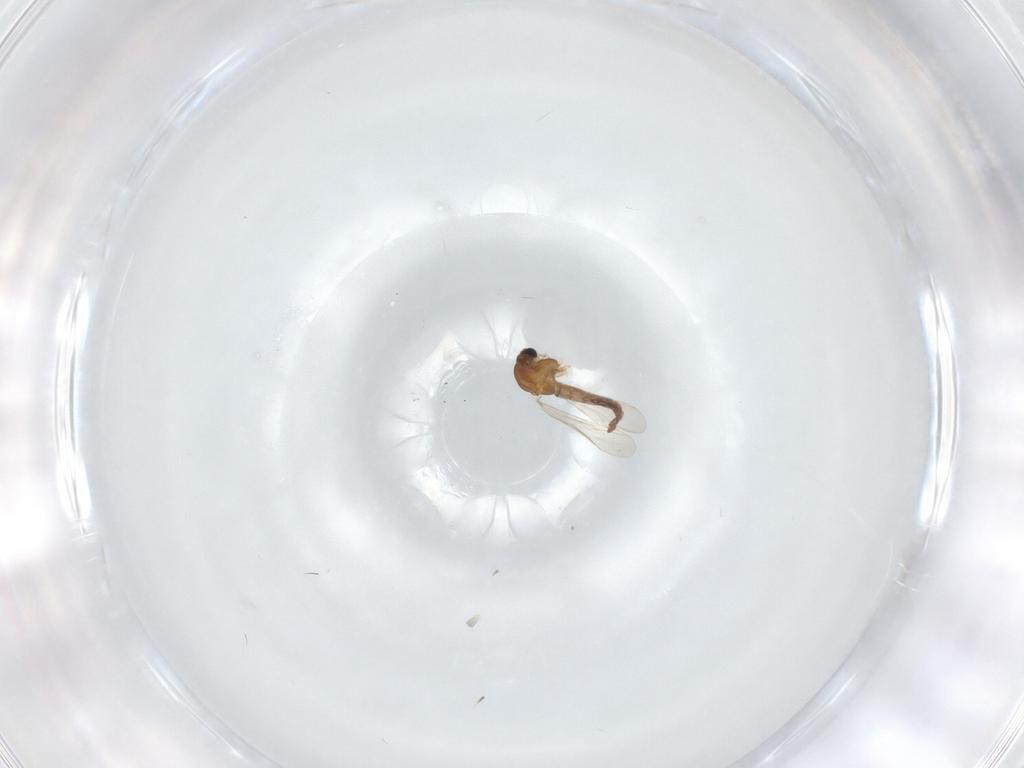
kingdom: Animalia
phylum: Arthropoda
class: Insecta
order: Diptera
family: Chironomidae
